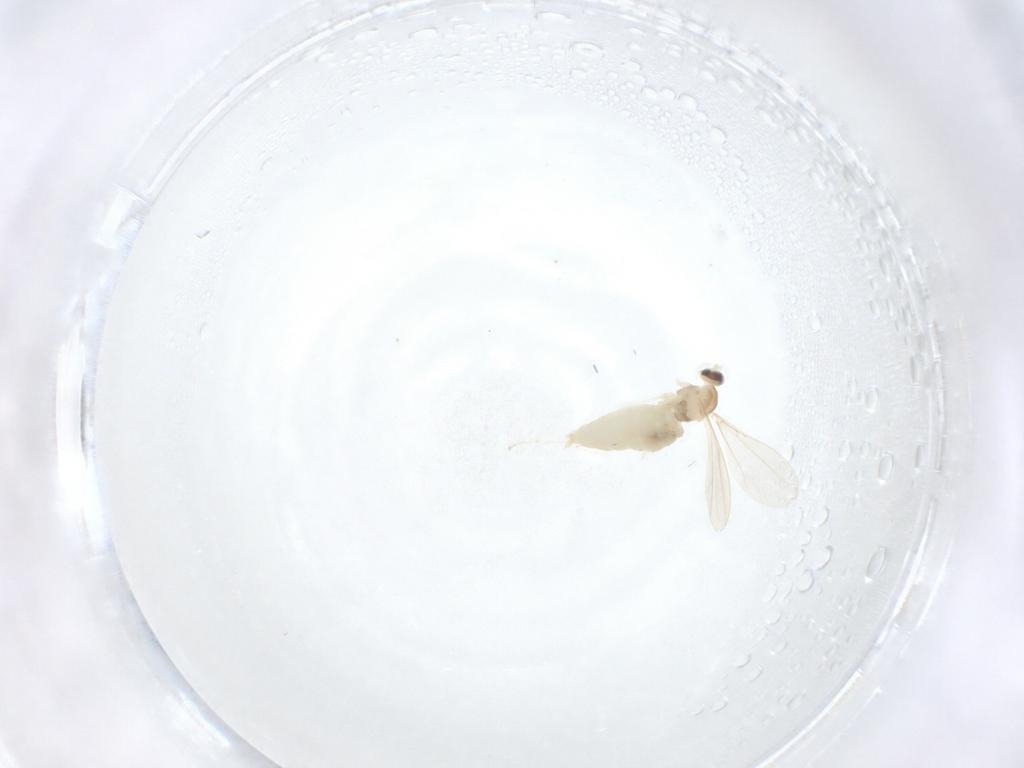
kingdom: Animalia
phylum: Arthropoda
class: Insecta
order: Diptera
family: Cecidomyiidae
